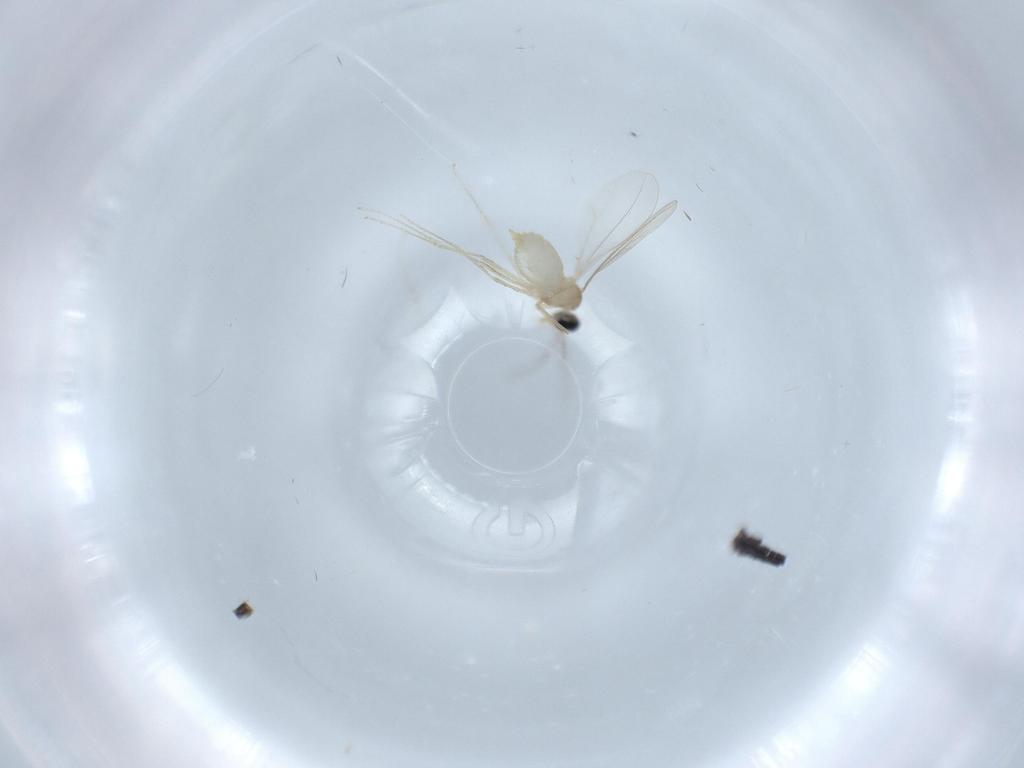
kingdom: Animalia
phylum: Arthropoda
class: Insecta
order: Diptera
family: Cecidomyiidae
